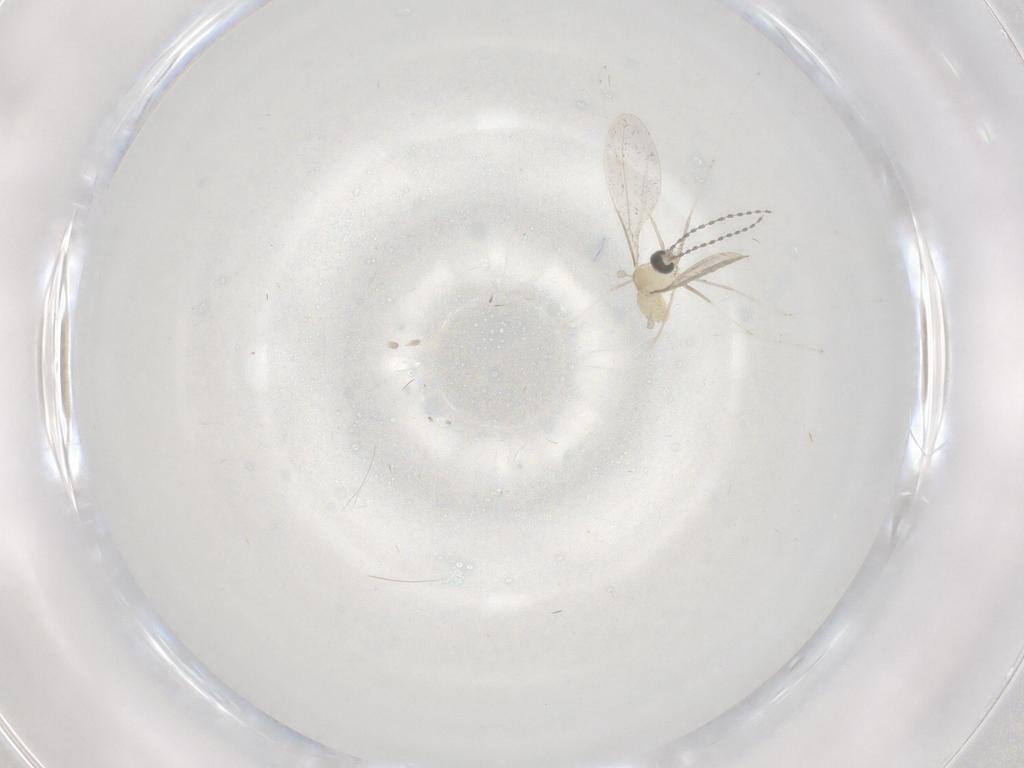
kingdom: Animalia
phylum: Arthropoda
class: Insecta
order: Diptera
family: Cecidomyiidae
